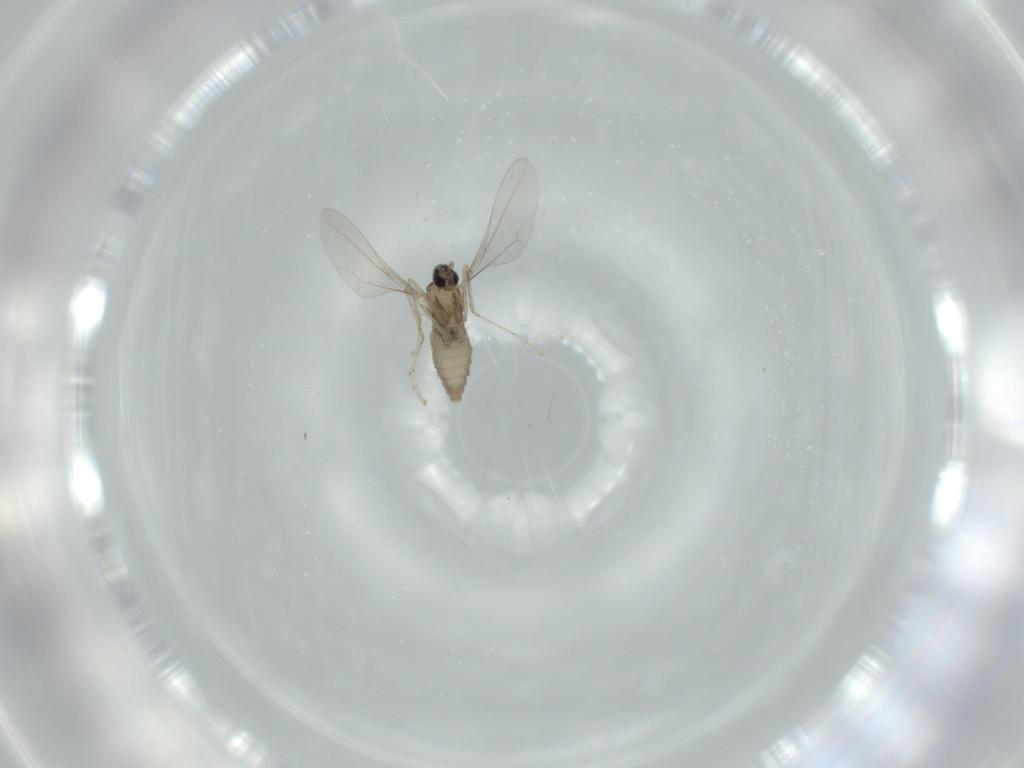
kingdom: Animalia
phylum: Arthropoda
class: Insecta
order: Diptera
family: Cecidomyiidae
